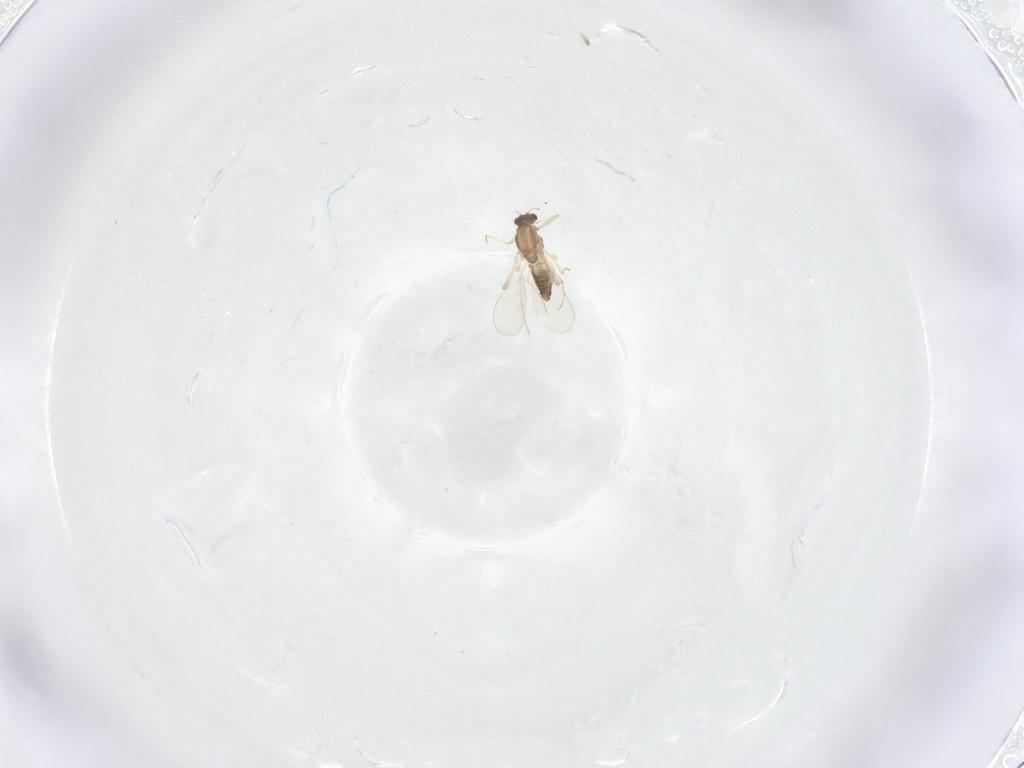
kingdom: Animalia
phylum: Arthropoda
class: Insecta
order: Diptera
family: Chironomidae
